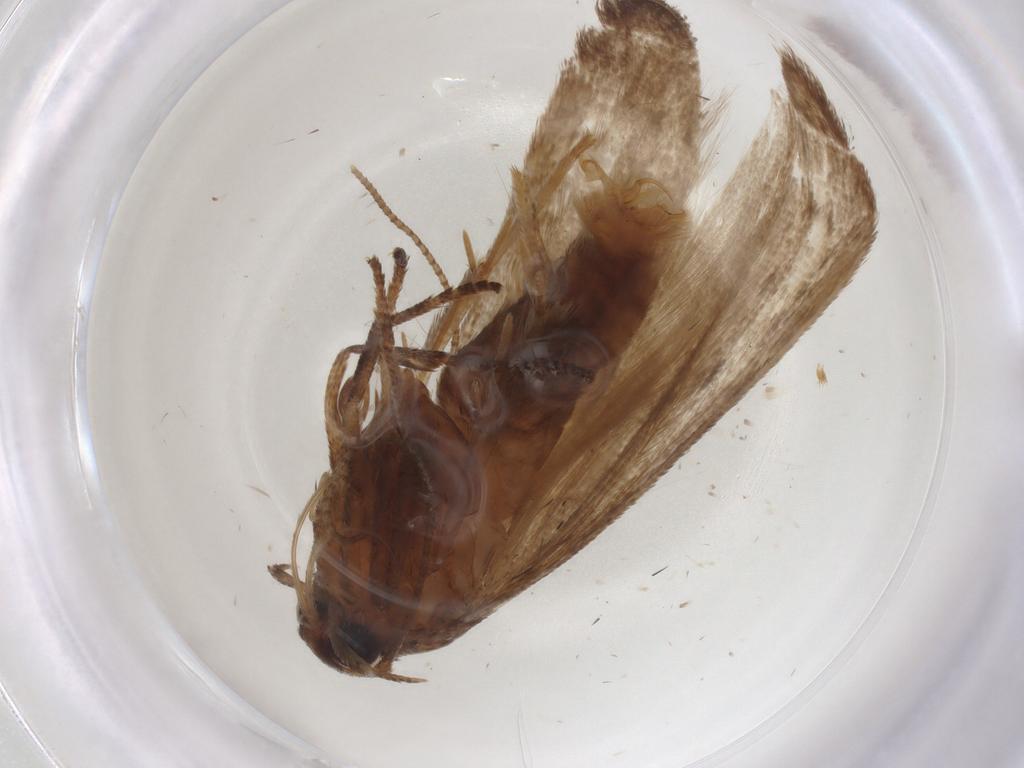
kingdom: Animalia
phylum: Arthropoda
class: Insecta
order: Lepidoptera
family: Blastobasidae
